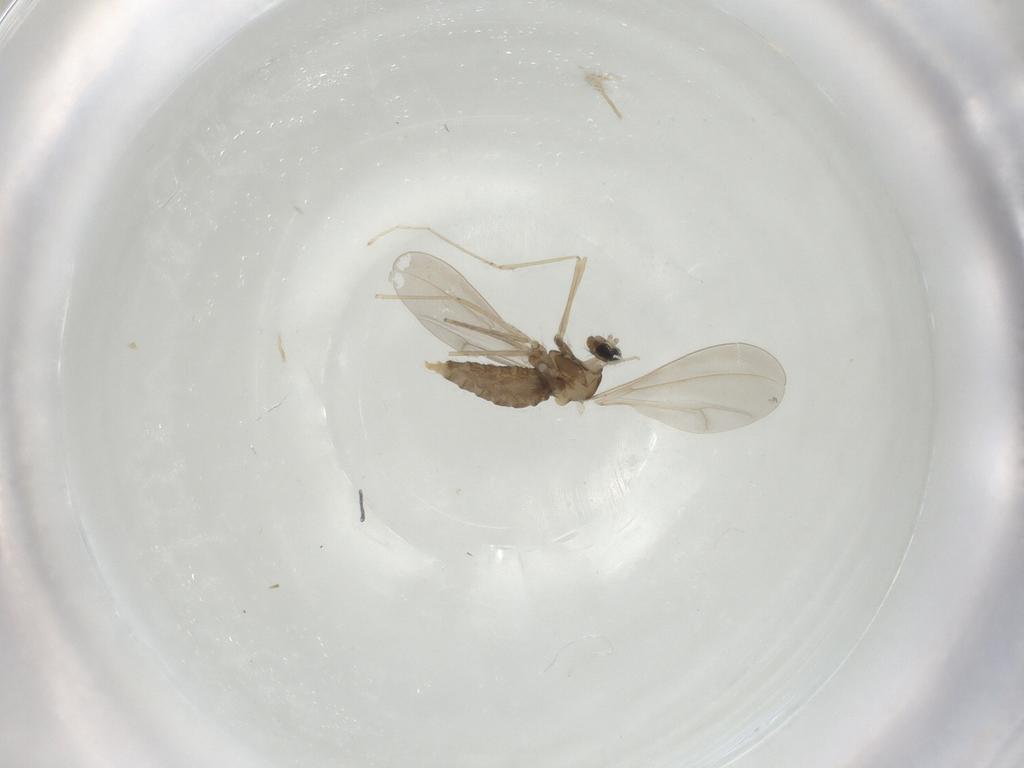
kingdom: Animalia
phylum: Arthropoda
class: Insecta
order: Diptera
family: Cecidomyiidae
